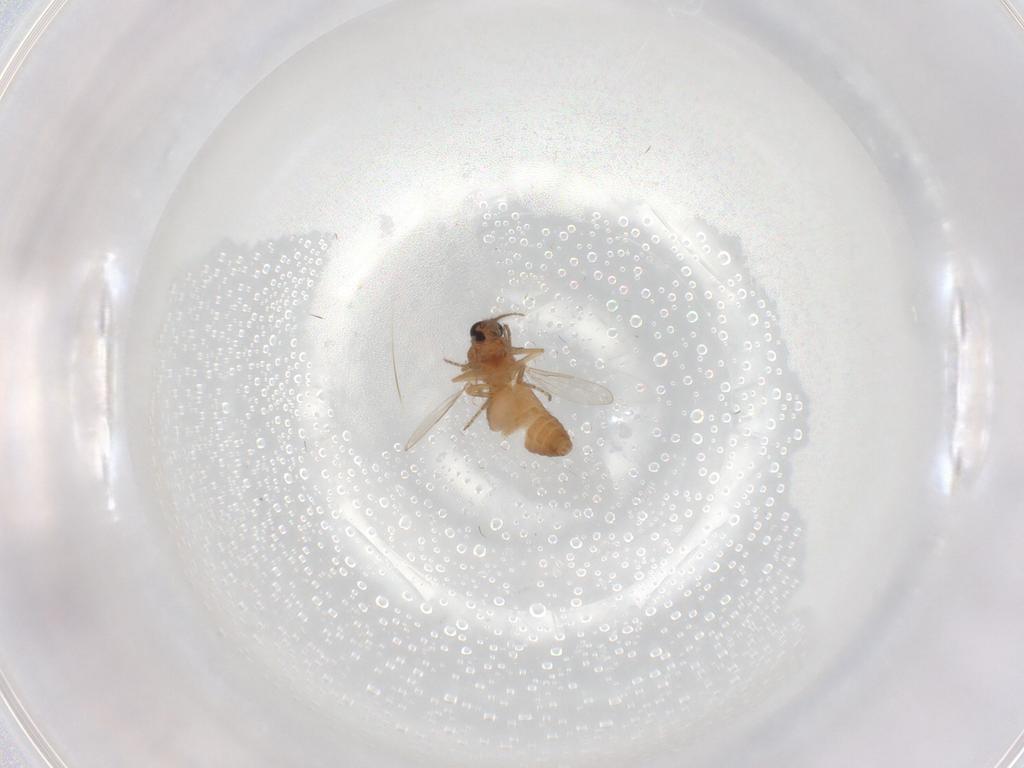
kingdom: Animalia
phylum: Arthropoda
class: Insecta
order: Diptera
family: Ceratopogonidae
